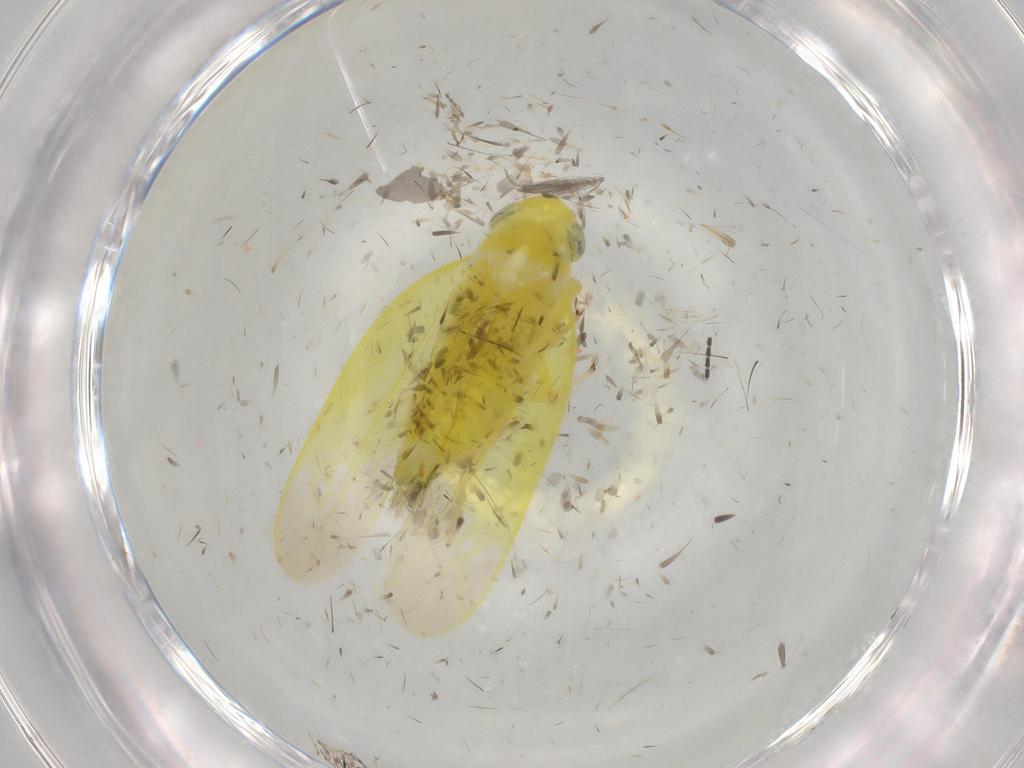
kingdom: Animalia
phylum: Arthropoda
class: Insecta
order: Hemiptera
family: Cicadellidae
